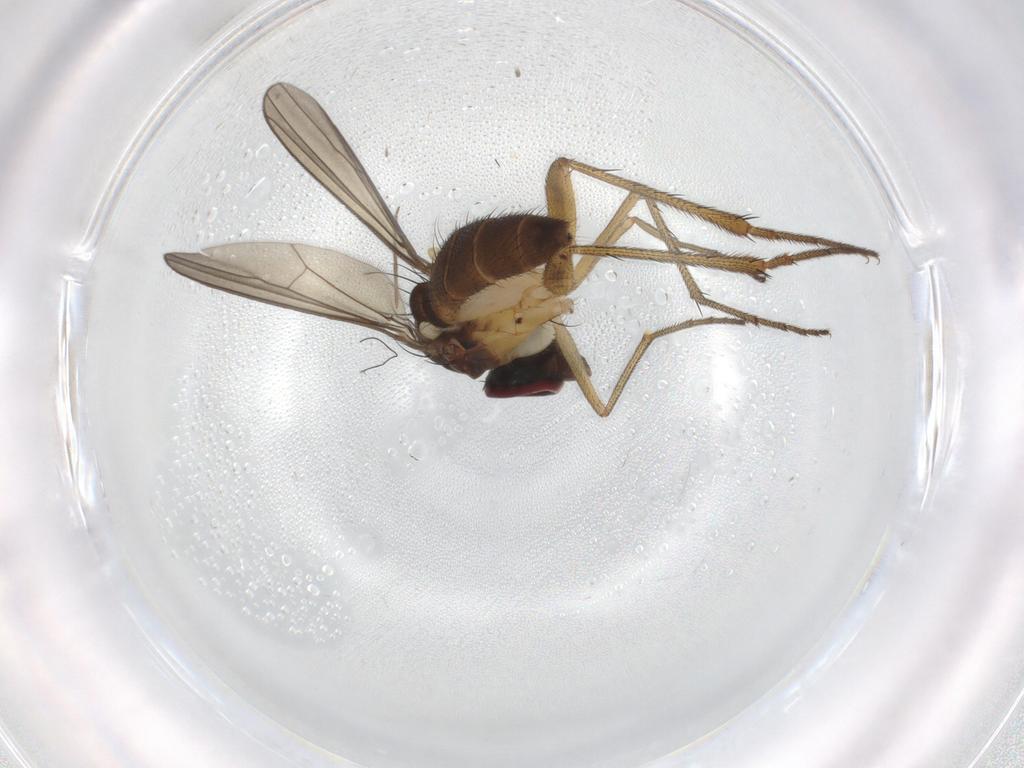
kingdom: Animalia
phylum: Arthropoda
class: Insecta
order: Diptera
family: Dolichopodidae
